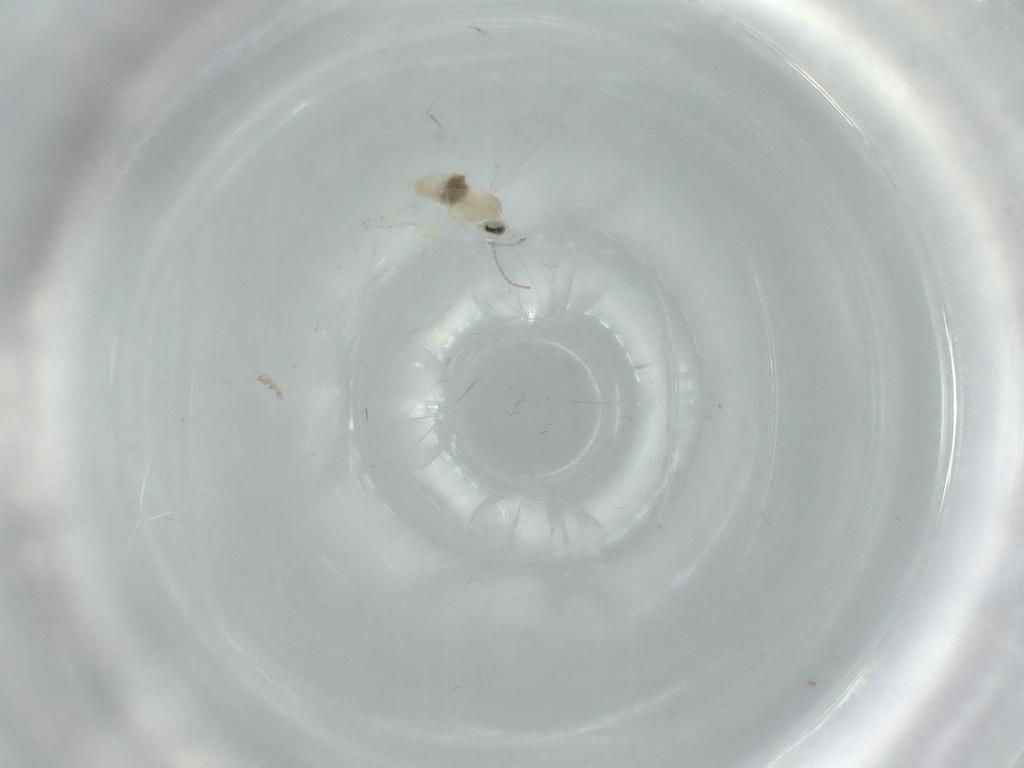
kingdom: Animalia
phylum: Arthropoda
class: Insecta
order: Diptera
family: Cecidomyiidae
